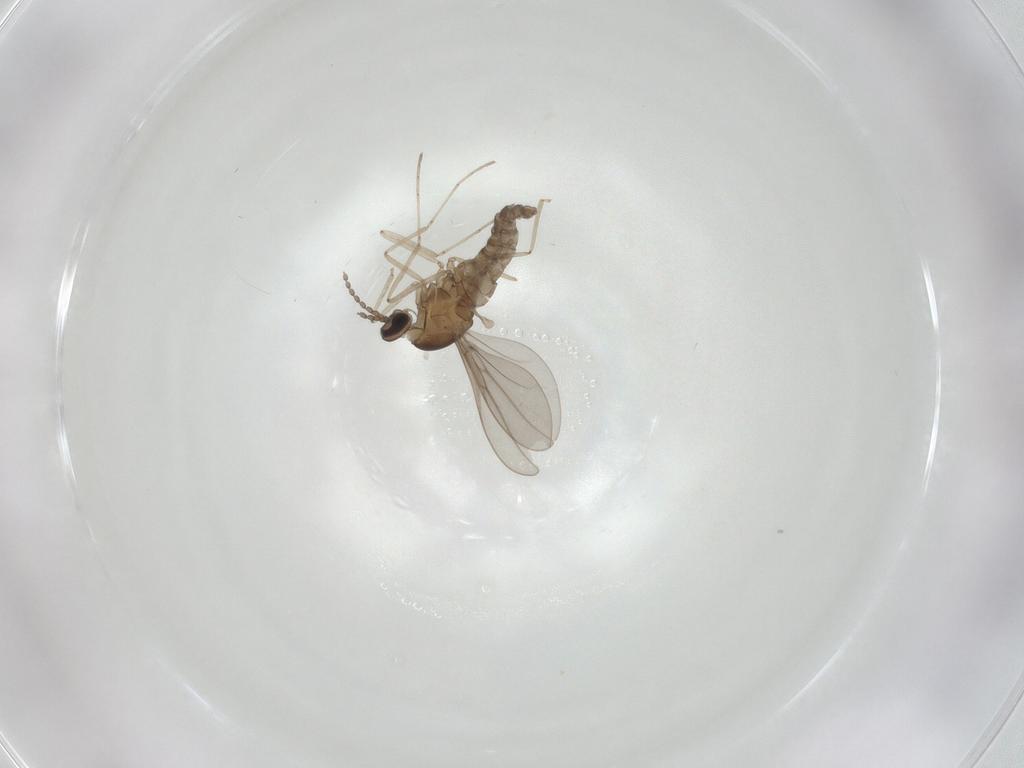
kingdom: Animalia
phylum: Arthropoda
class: Insecta
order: Diptera
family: Cecidomyiidae
